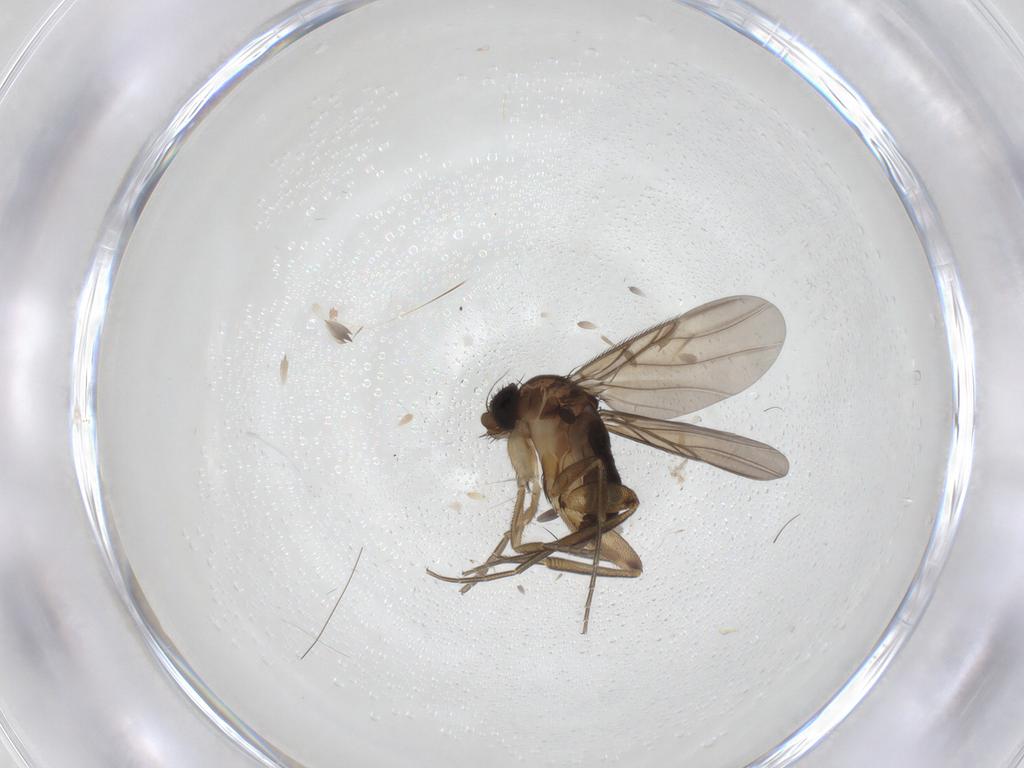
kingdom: Animalia
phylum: Arthropoda
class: Insecta
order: Diptera
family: Phoridae
